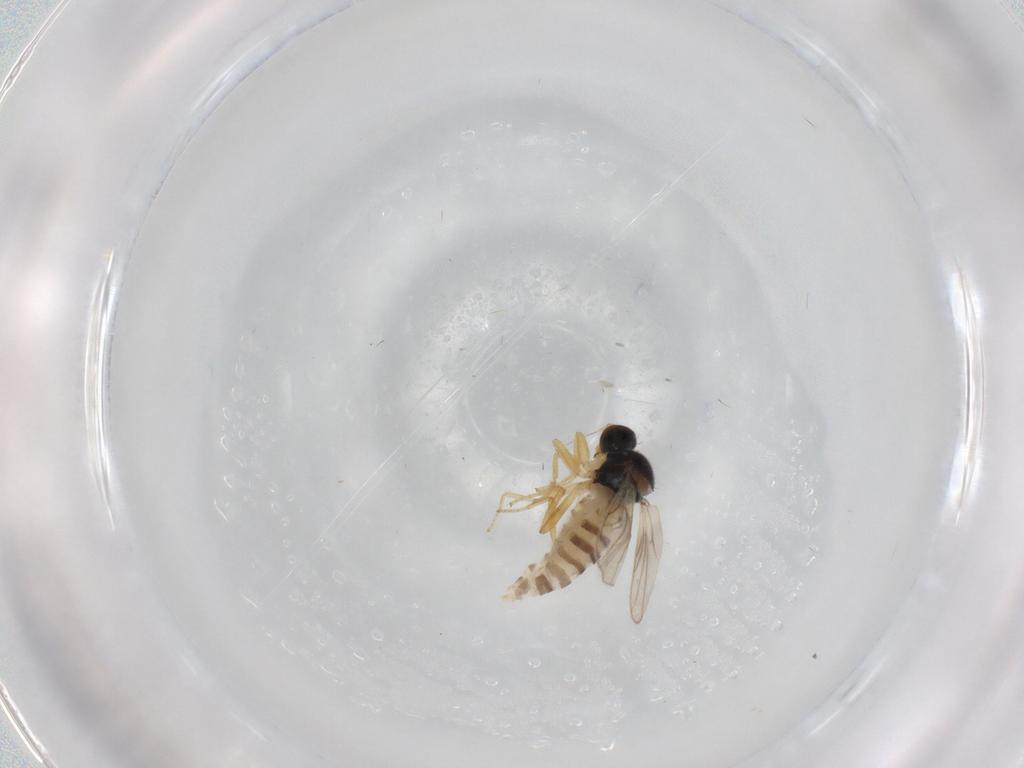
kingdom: Animalia
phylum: Arthropoda
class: Insecta
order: Diptera
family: Hybotidae
